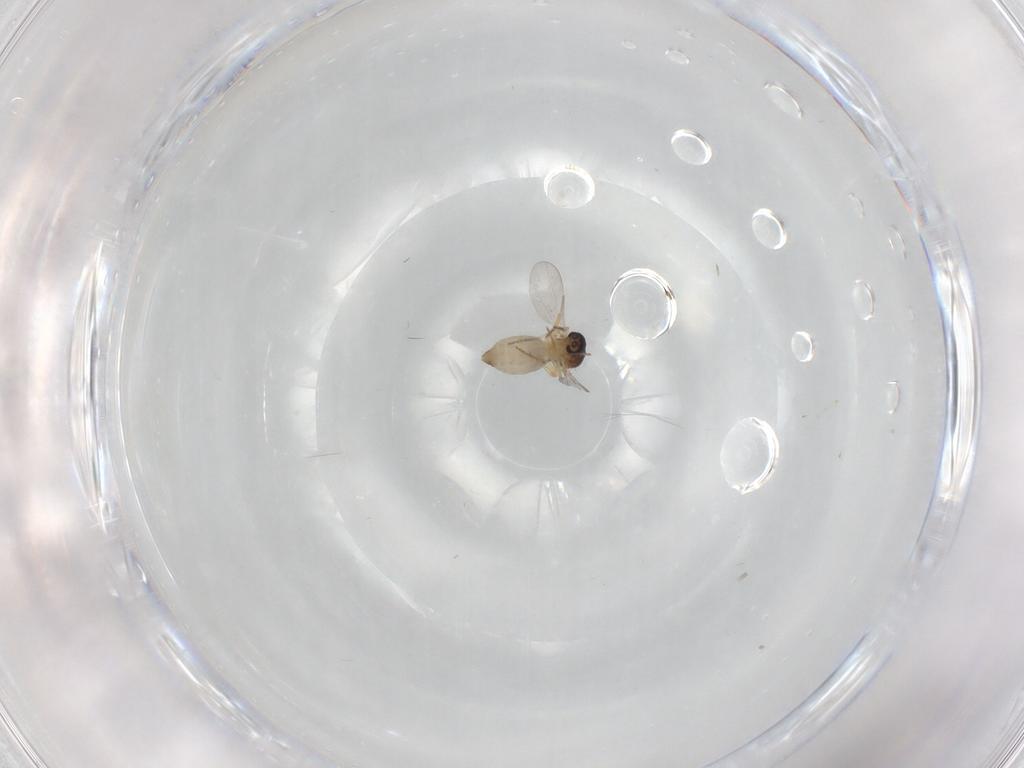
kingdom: Animalia
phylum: Arthropoda
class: Insecta
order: Diptera
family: Ceratopogonidae
